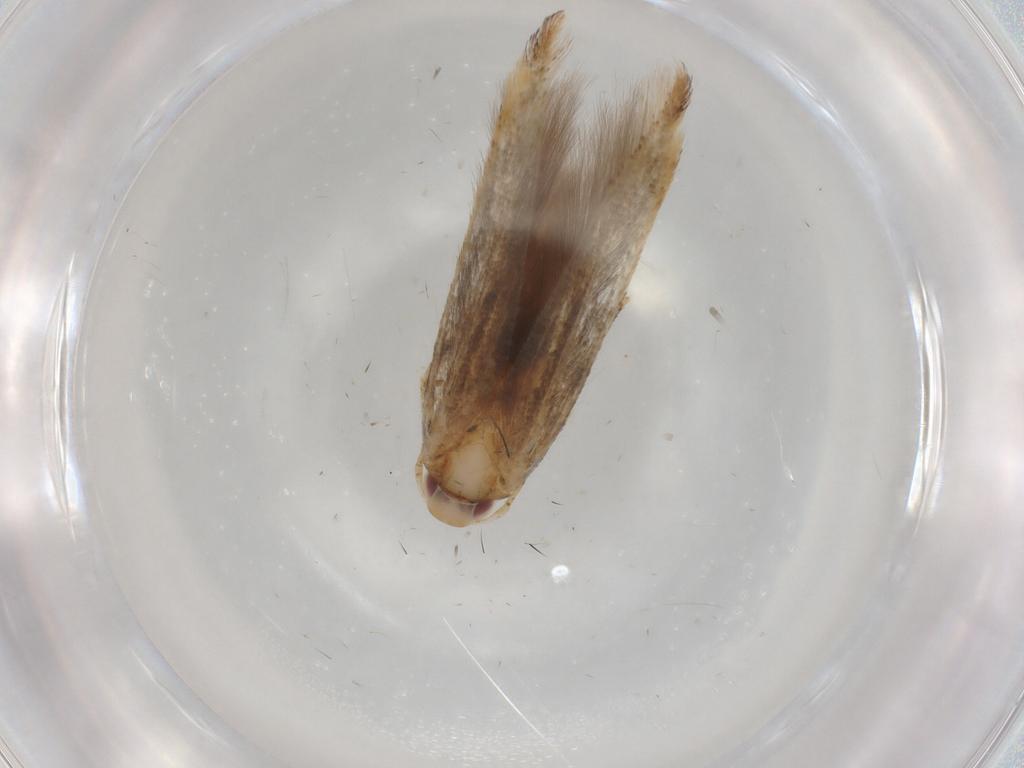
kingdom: Animalia
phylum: Arthropoda
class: Insecta
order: Lepidoptera
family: Cosmopterigidae
